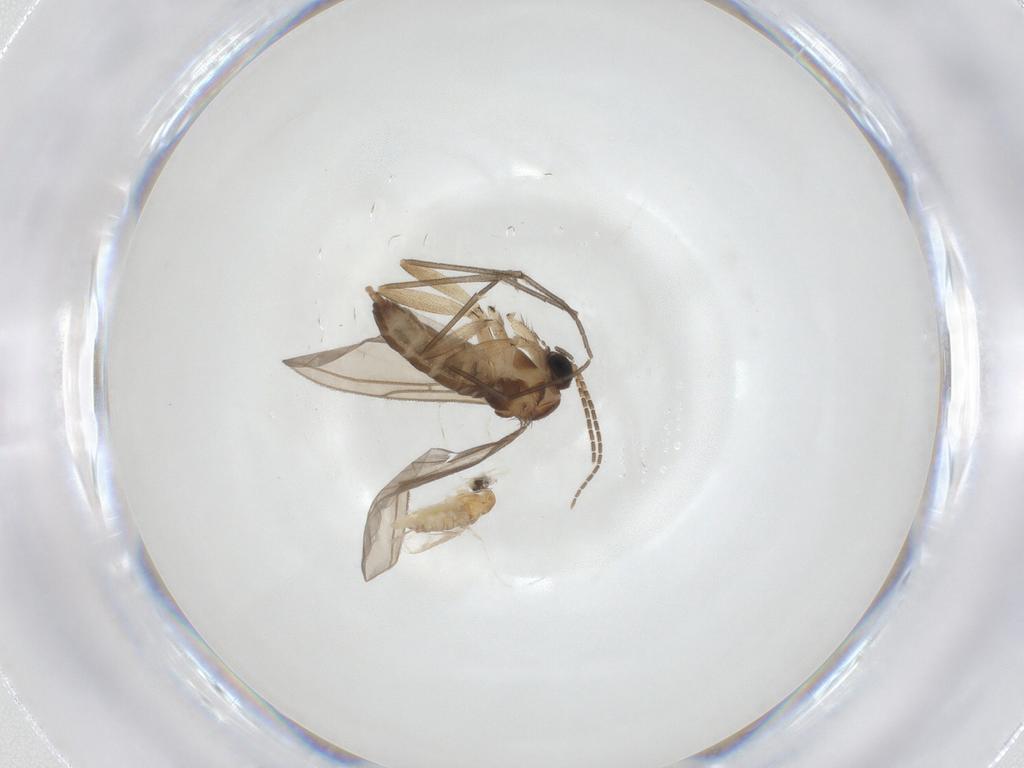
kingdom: Animalia
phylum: Arthropoda
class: Insecta
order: Diptera
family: Cecidomyiidae
